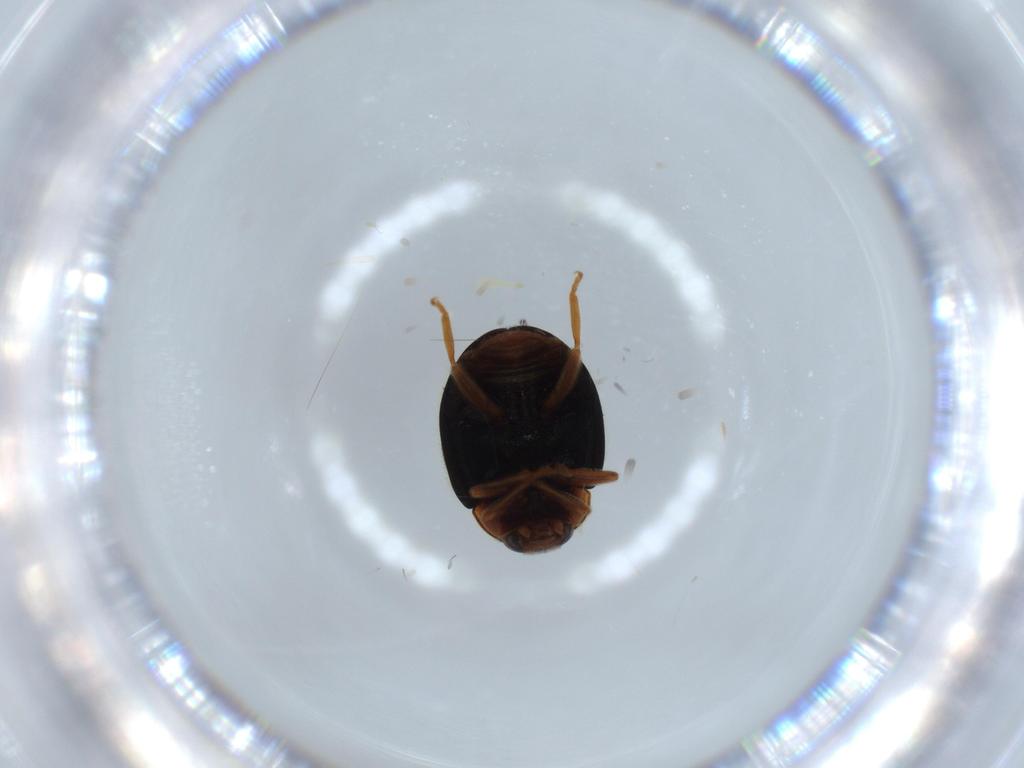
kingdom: Animalia
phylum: Arthropoda
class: Insecta
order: Coleoptera
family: Coccinellidae
